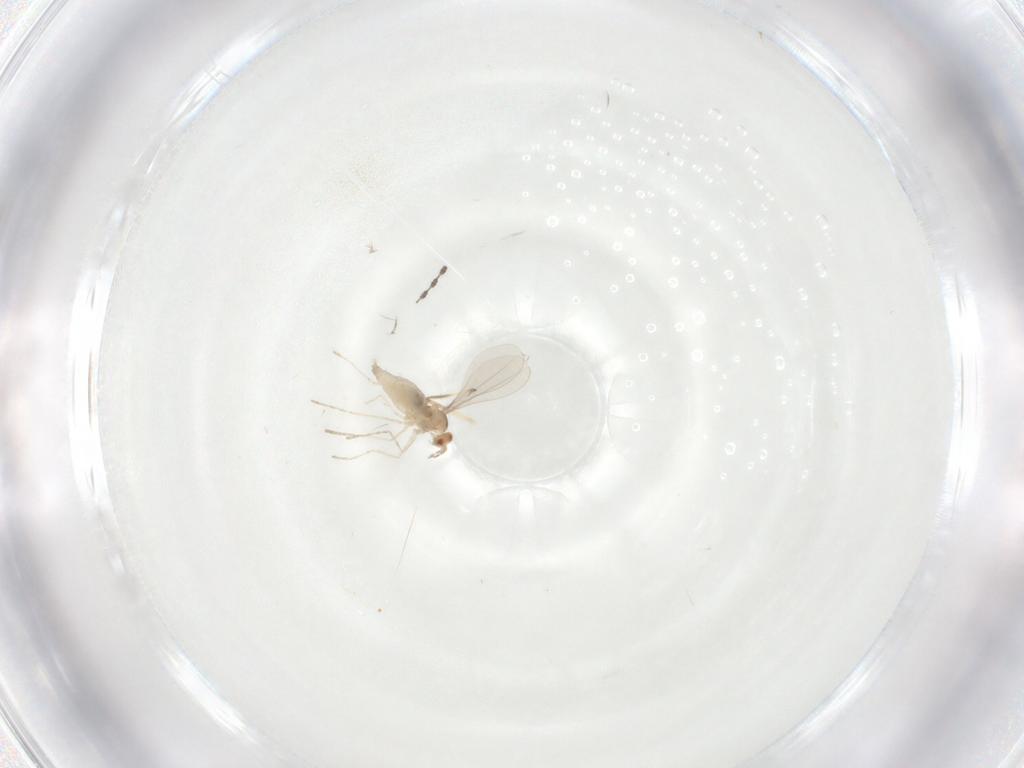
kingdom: Animalia
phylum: Arthropoda
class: Insecta
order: Diptera
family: Chironomidae
